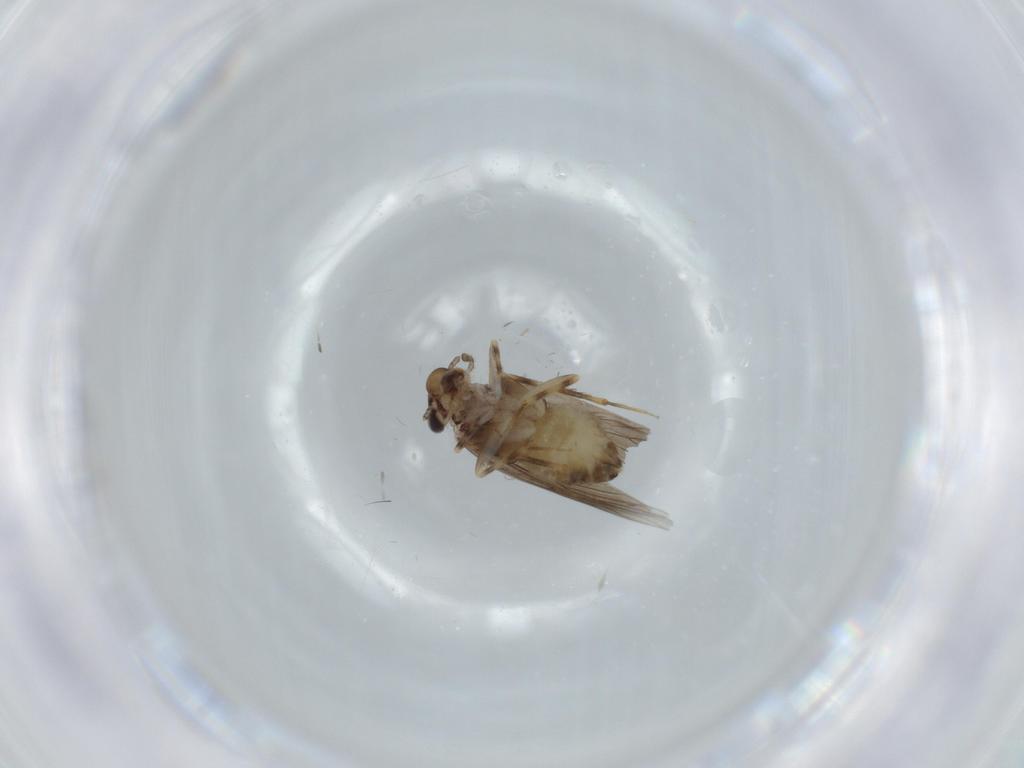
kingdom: Animalia
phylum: Arthropoda
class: Insecta
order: Psocodea
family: Lepidopsocidae
